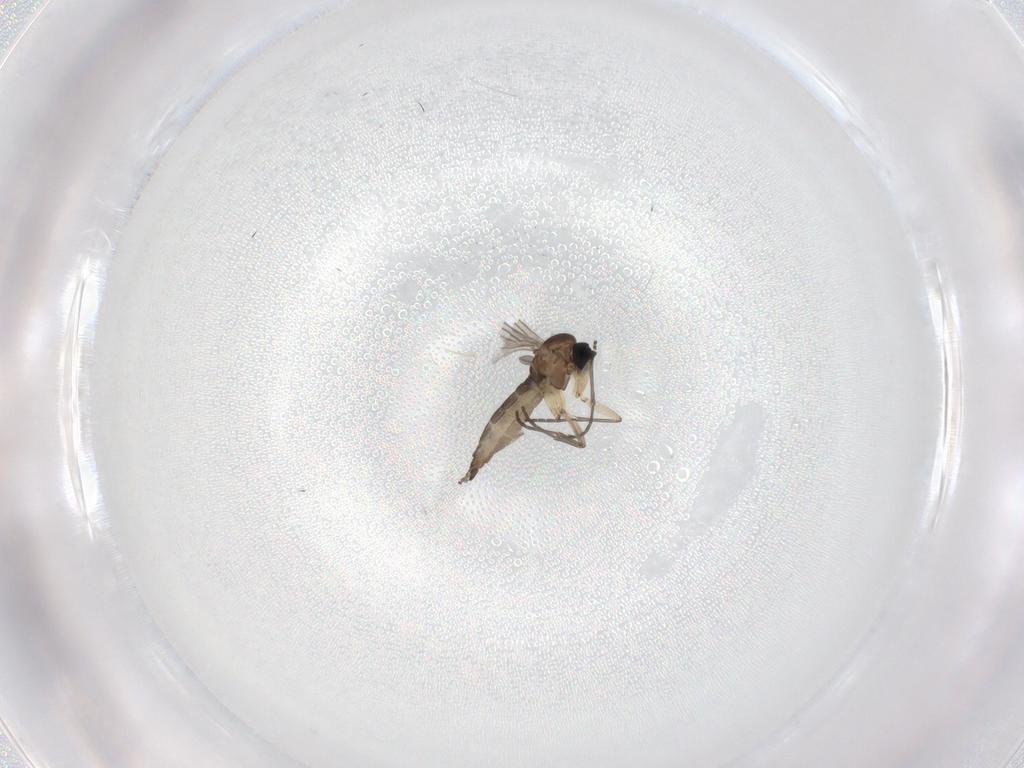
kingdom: Animalia
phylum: Arthropoda
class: Insecta
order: Diptera
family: Sciaridae
